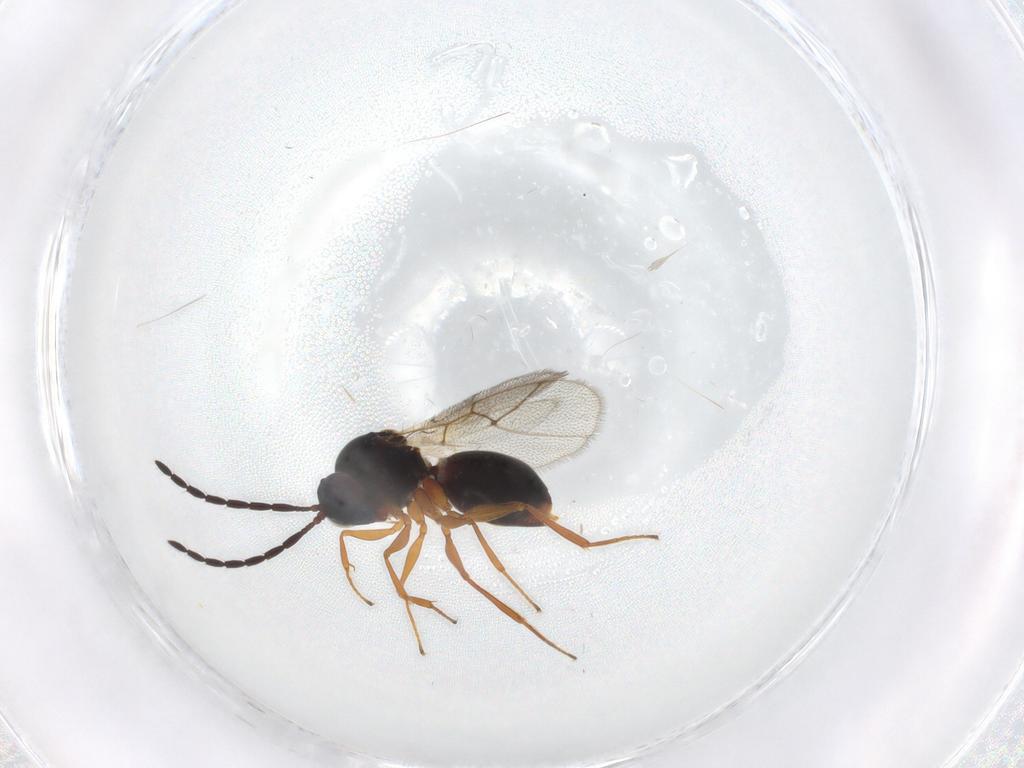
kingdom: Animalia
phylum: Arthropoda
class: Insecta
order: Hymenoptera
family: Figitidae
